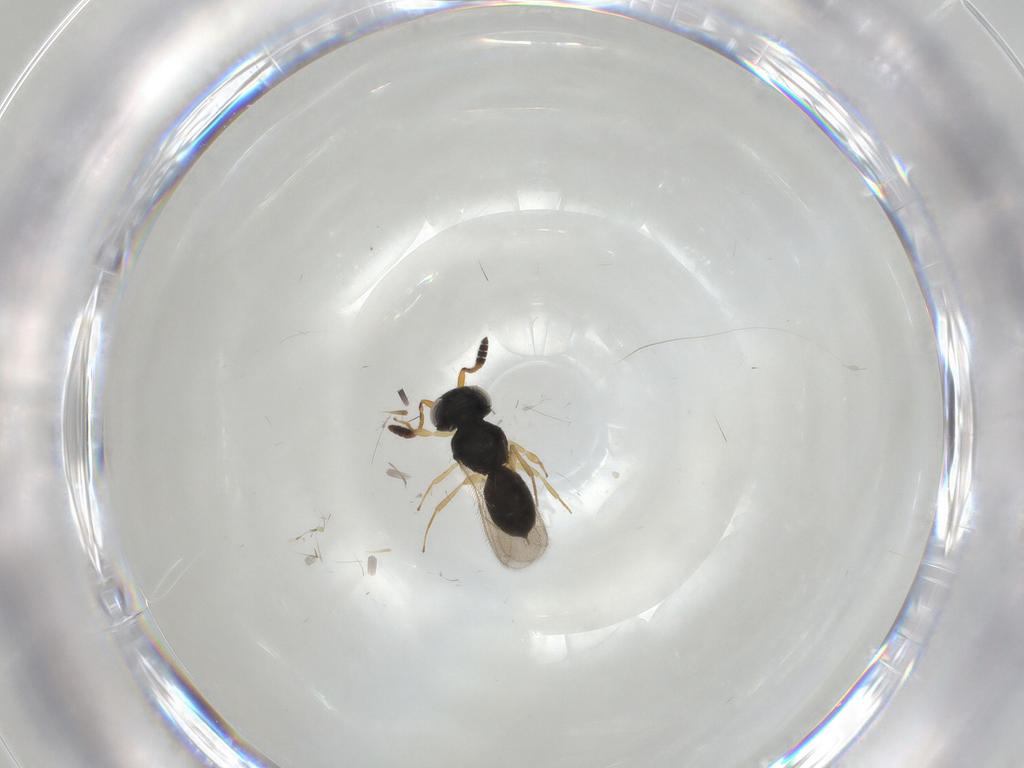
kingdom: Animalia
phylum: Arthropoda
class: Insecta
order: Hymenoptera
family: Scelionidae
